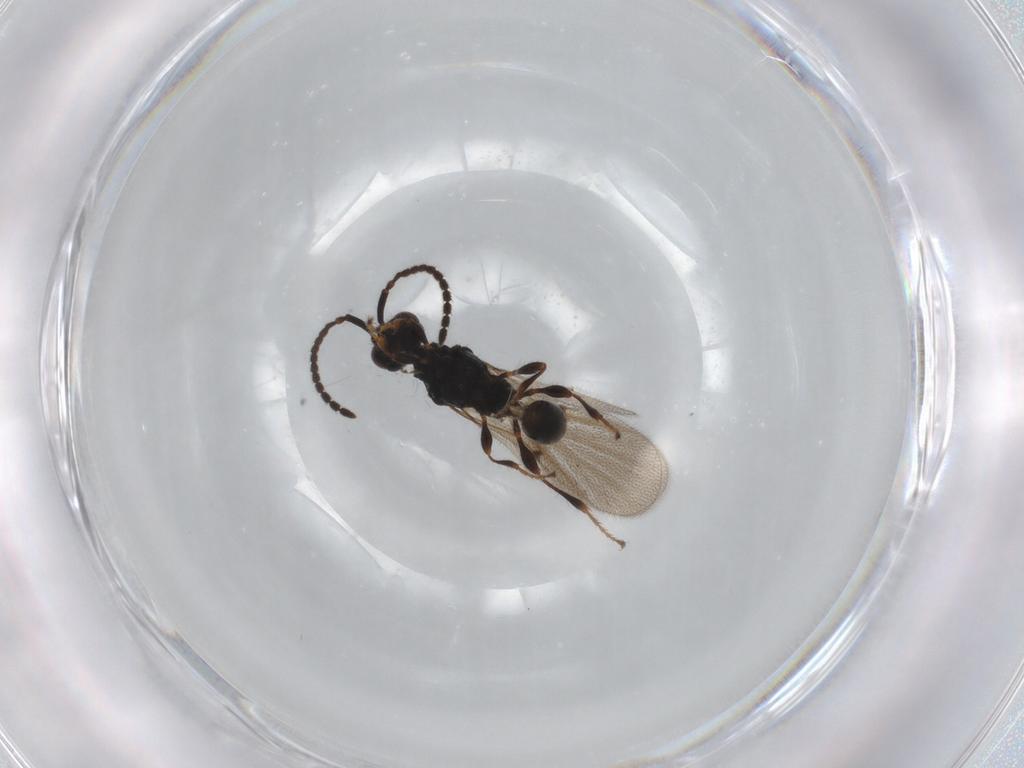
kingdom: Animalia
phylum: Arthropoda
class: Insecta
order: Hymenoptera
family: Diapriidae
